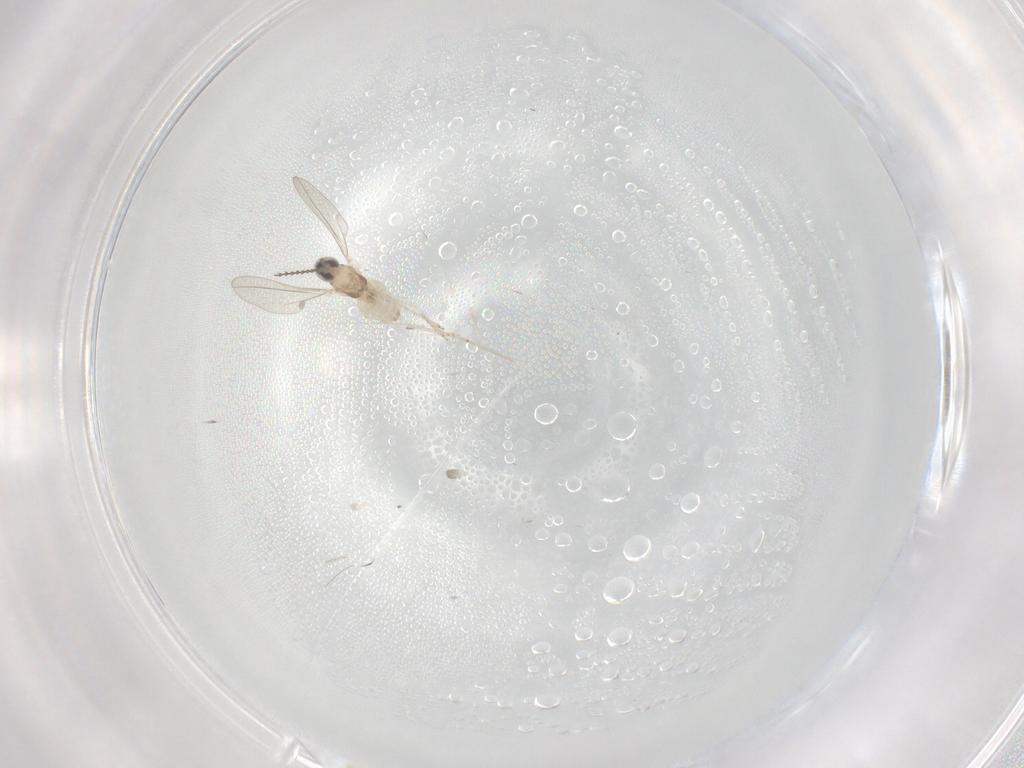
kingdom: Animalia
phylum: Arthropoda
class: Insecta
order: Diptera
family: Cecidomyiidae
